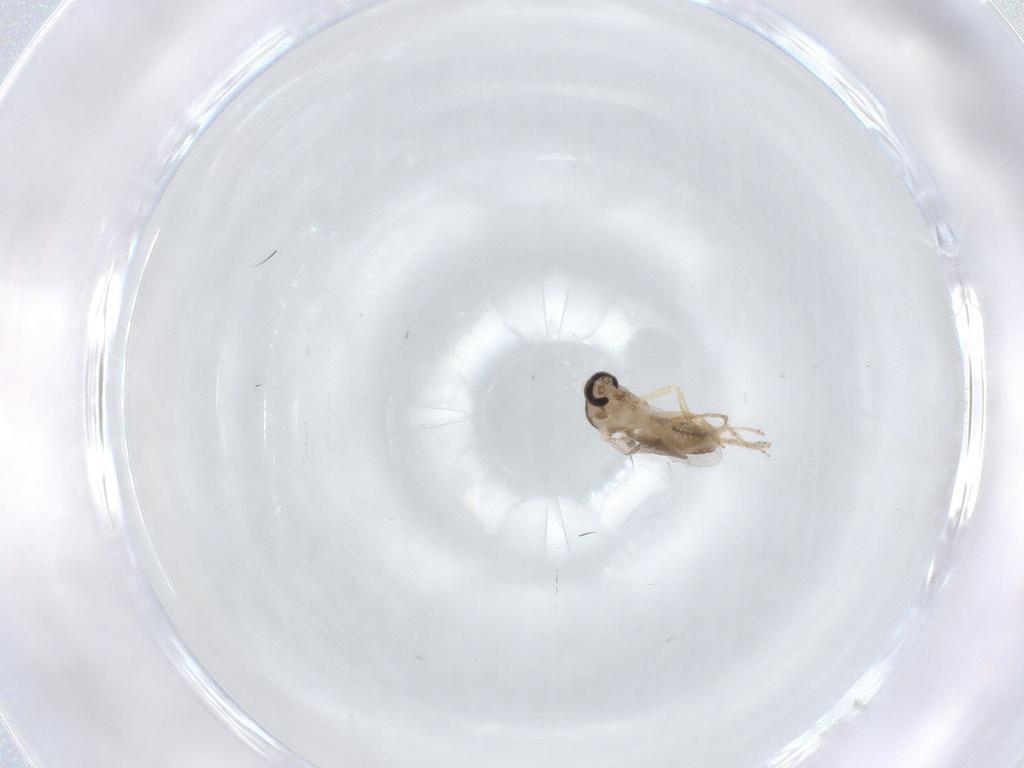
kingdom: Animalia
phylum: Arthropoda
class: Insecta
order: Diptera
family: Ceratopogonidae
